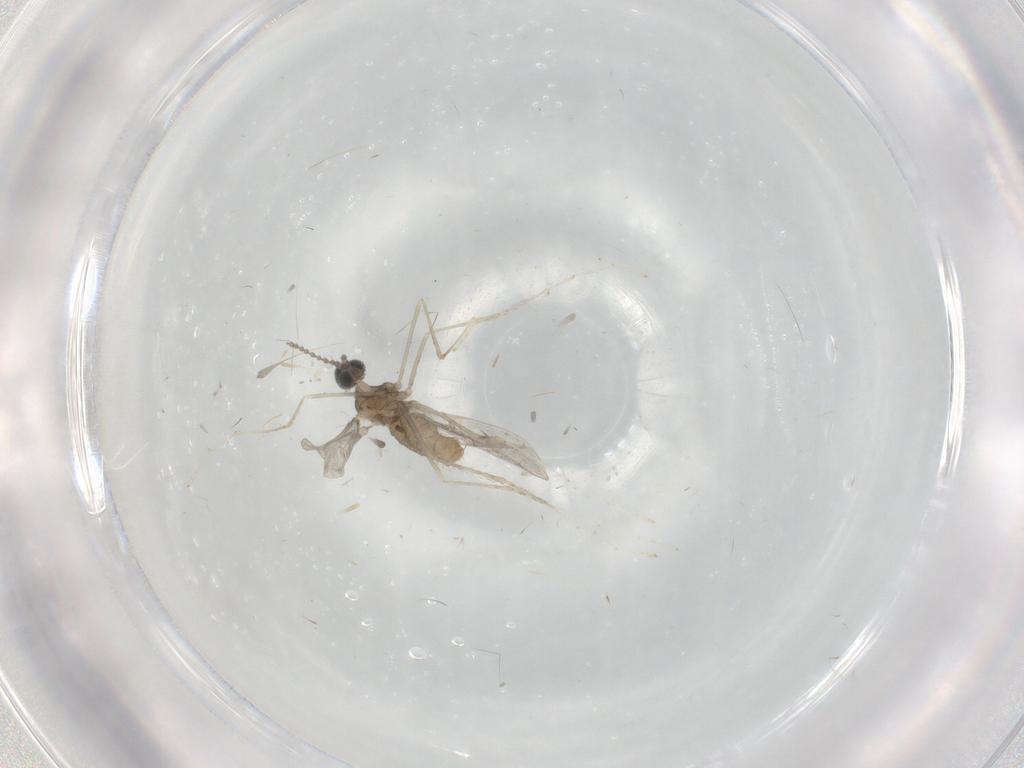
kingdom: Animalia
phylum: Arthropoda
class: Insecta
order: Diptera
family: Cecidomyiidae
